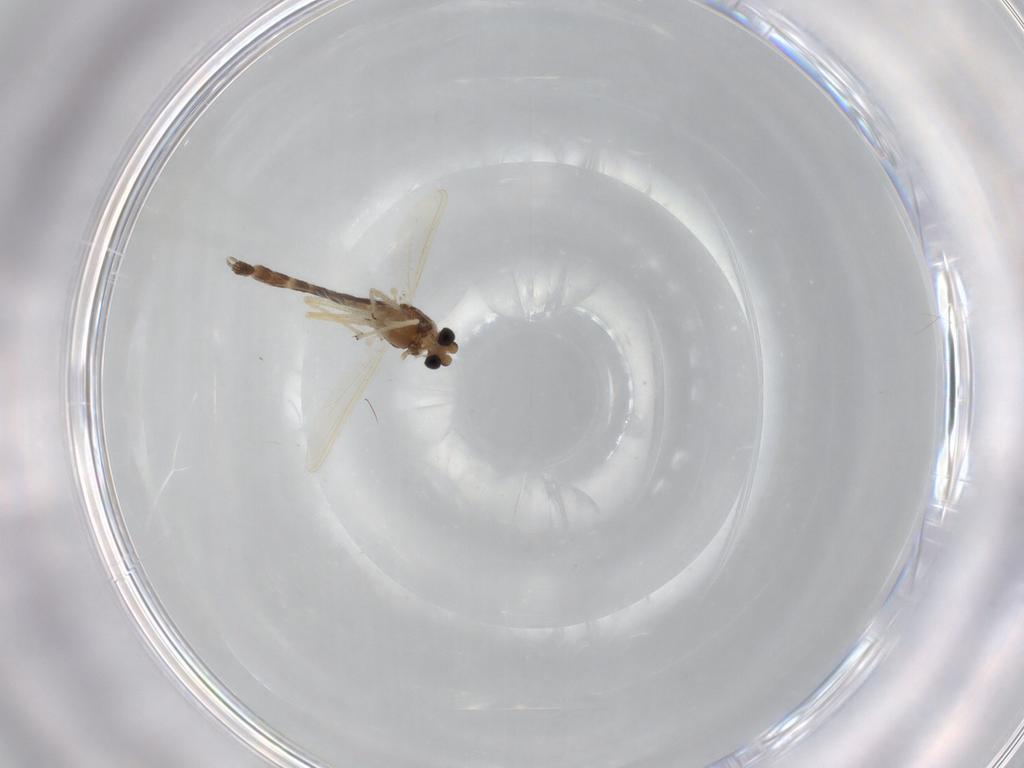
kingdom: Animalia
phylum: Arthropoda
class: Insecta
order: Diptera
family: Chironomidae
